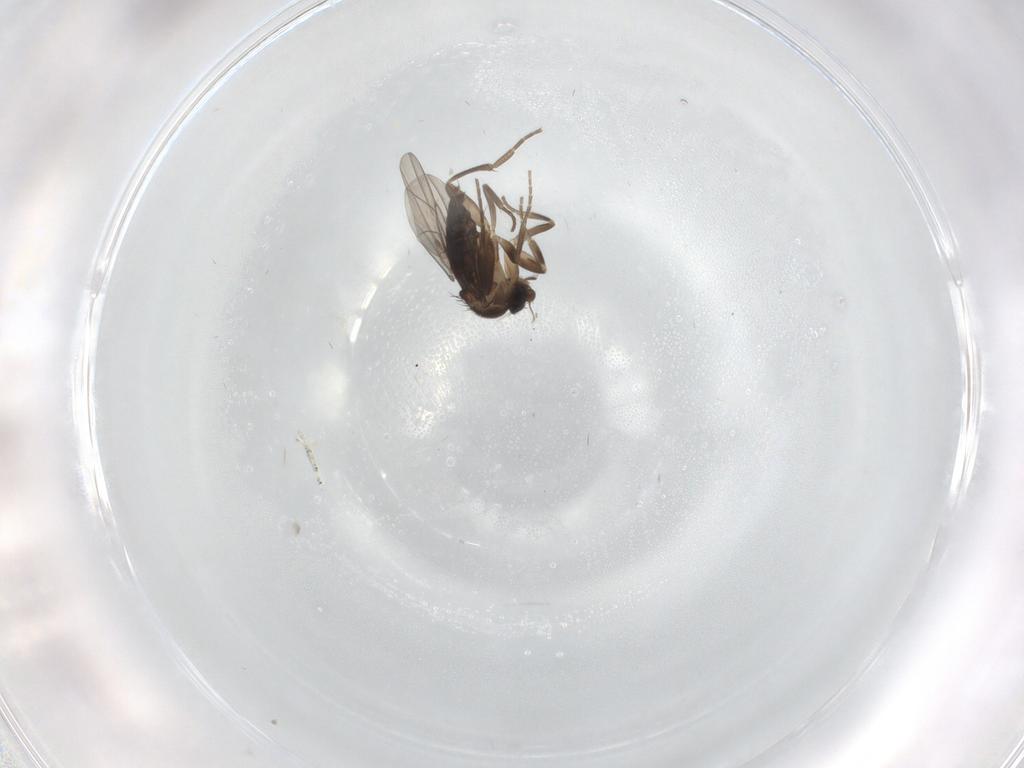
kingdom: Animalia
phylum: Arthropoda
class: Insecta
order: Diptera
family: Phoridae
